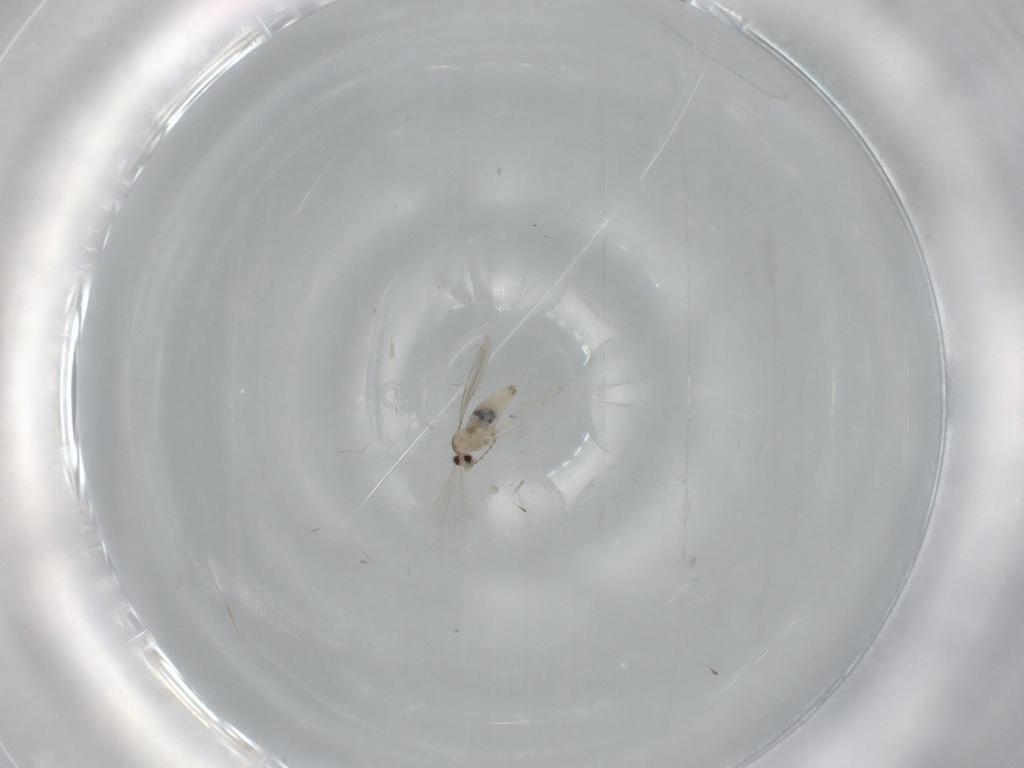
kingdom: Animalia
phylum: Arthropoda
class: Insecta
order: Diptera
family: Cecidomyiidae
